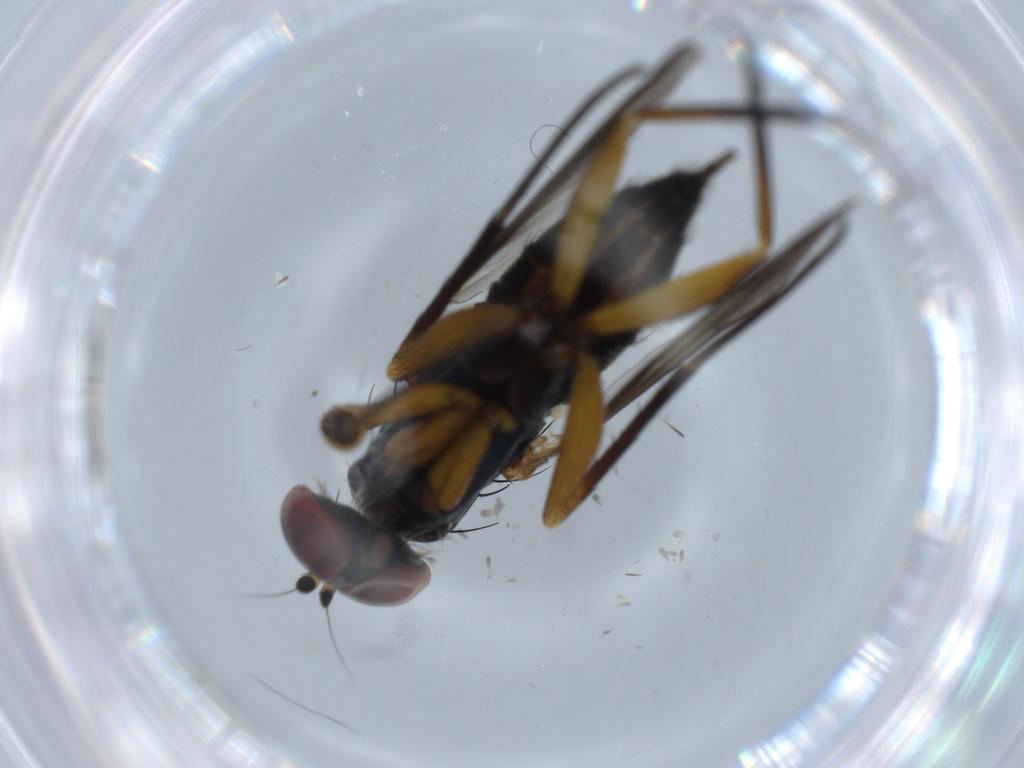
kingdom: Animalia
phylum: Arthropoda
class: Insecta
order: Diptera
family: Dolichopodidae
